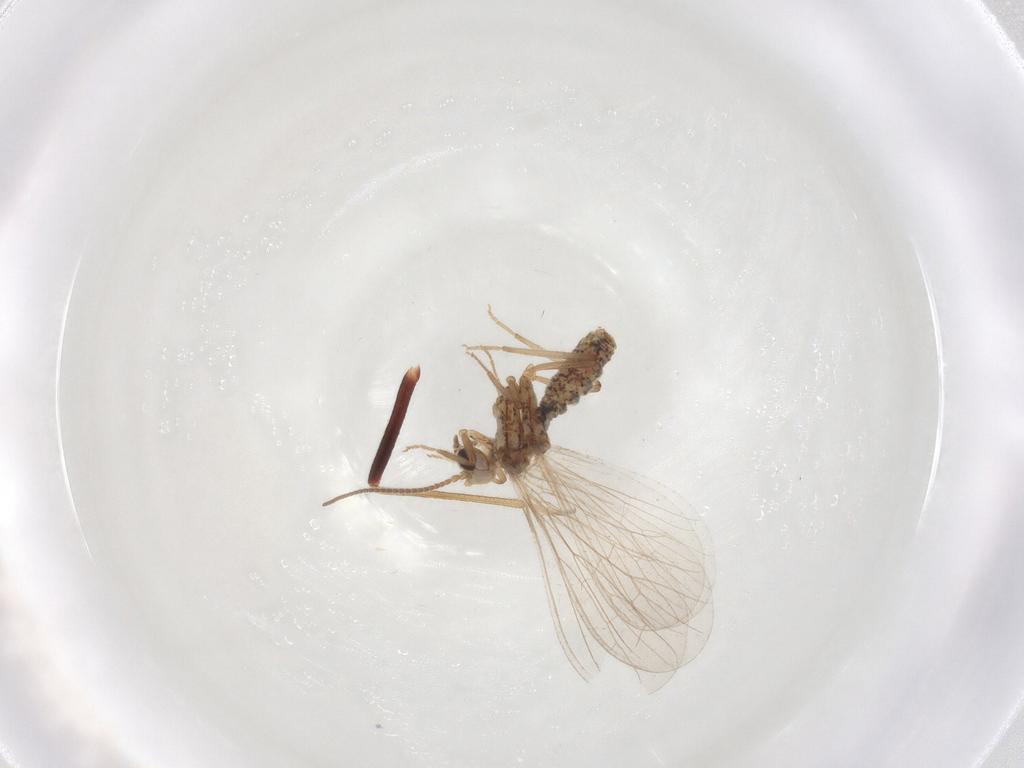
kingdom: Animalia
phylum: Arthropoda
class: Insecta
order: Neuroptera
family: Coniopterygidae
